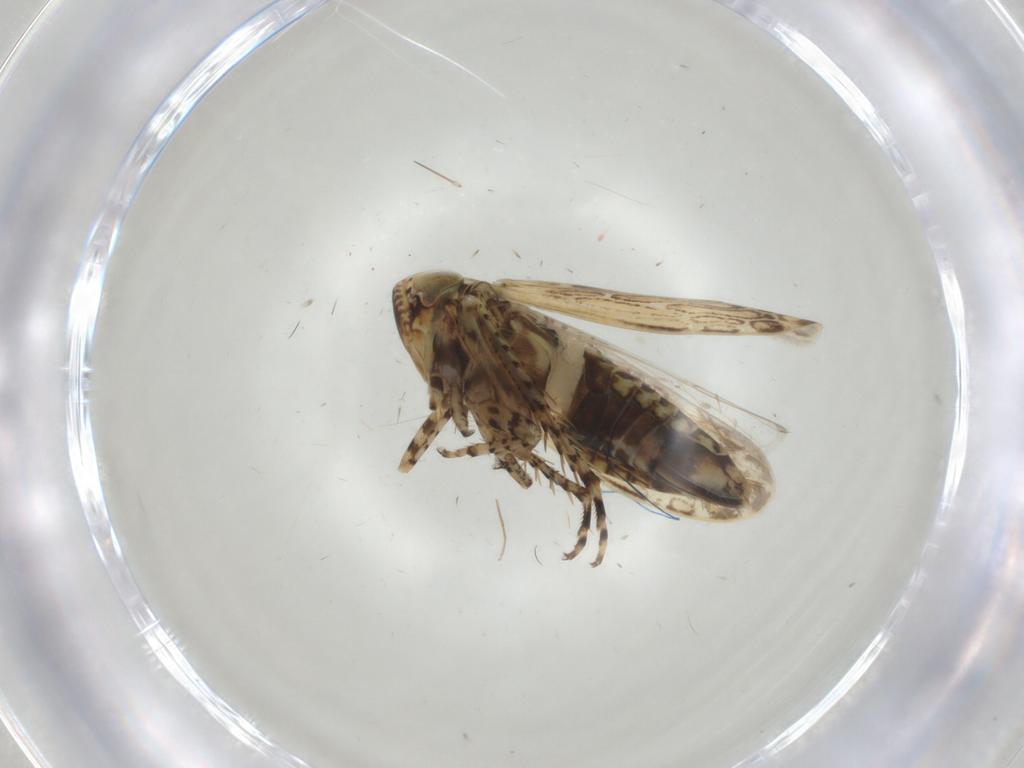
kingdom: Animalia
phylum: Arthropoda
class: Insecta
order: Hemiptera
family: Cicadellidae
